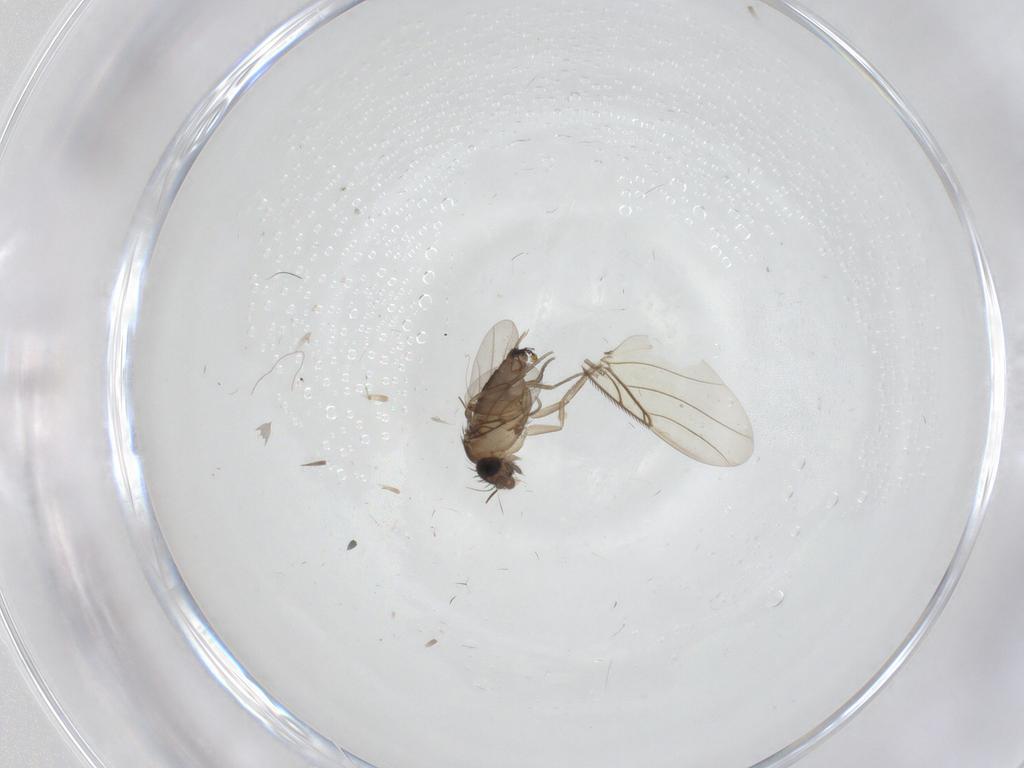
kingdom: Animalia
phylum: Arthropoda
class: Insecta
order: Diptera
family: Phoridae
